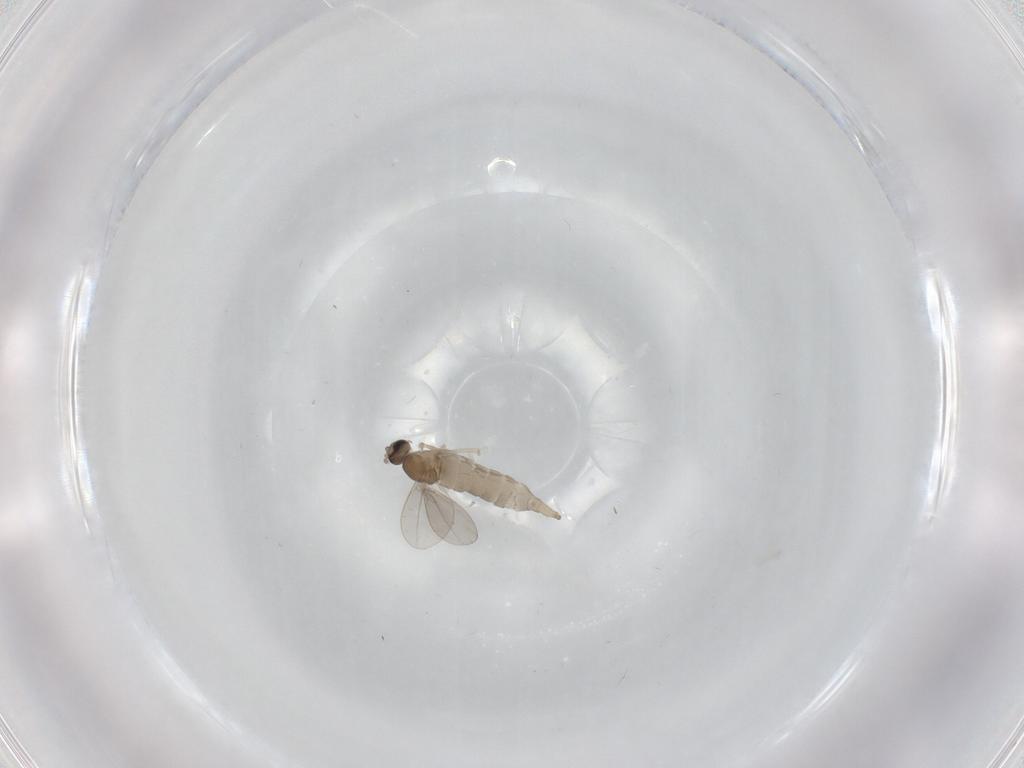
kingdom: Animalia
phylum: Arthropoda
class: Insecta
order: Diptera
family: Cecidomyiidae
